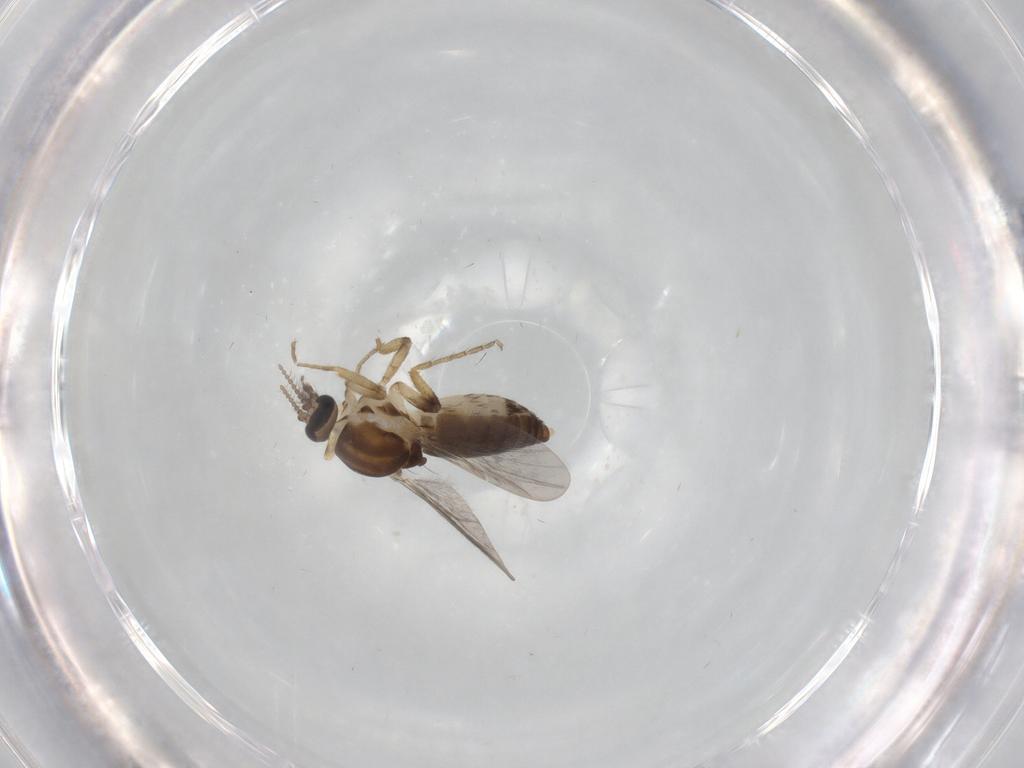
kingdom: Animalia
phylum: Arthropoda
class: Insecta
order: Diptera
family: Ceratopogonidae
